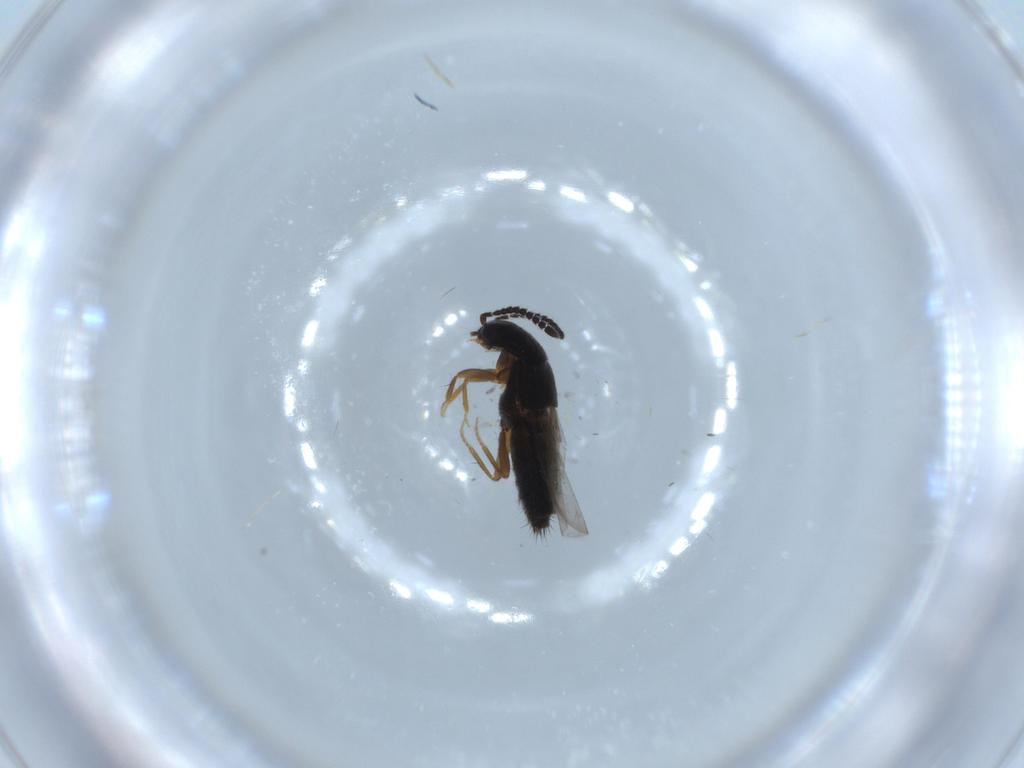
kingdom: Animalia
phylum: Arthropoda
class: Insecta
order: Coleoptera
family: Staphylinidae
